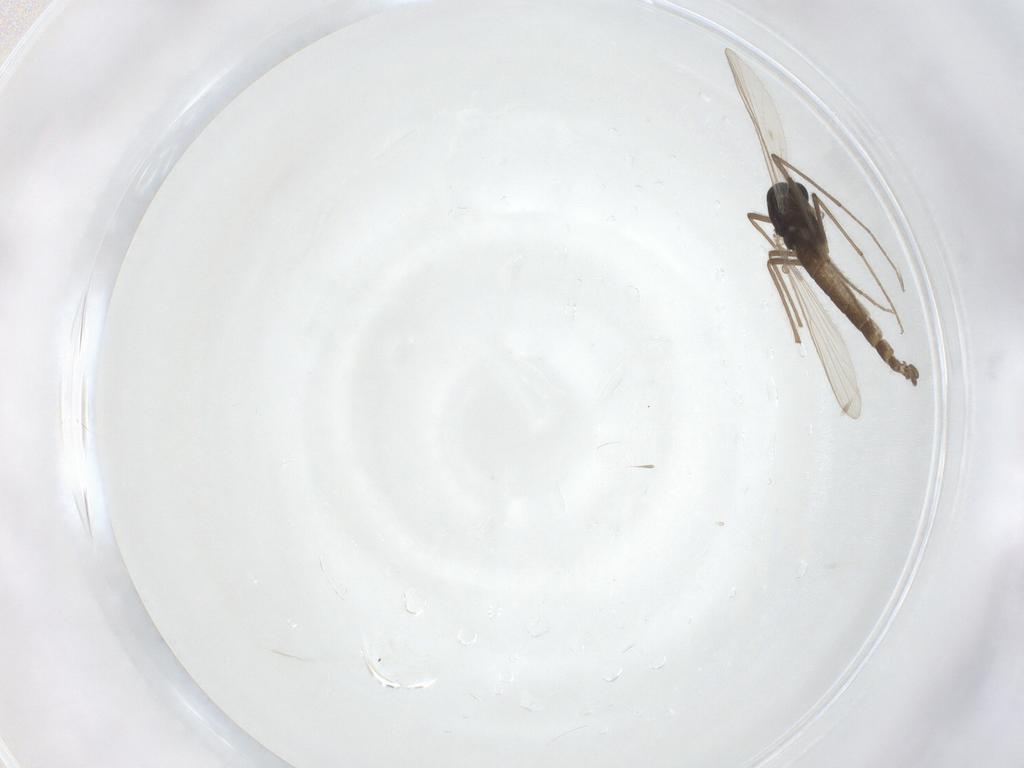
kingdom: Animalia
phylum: Arthropoda
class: Insecta
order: Diptera
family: Chironomidae
